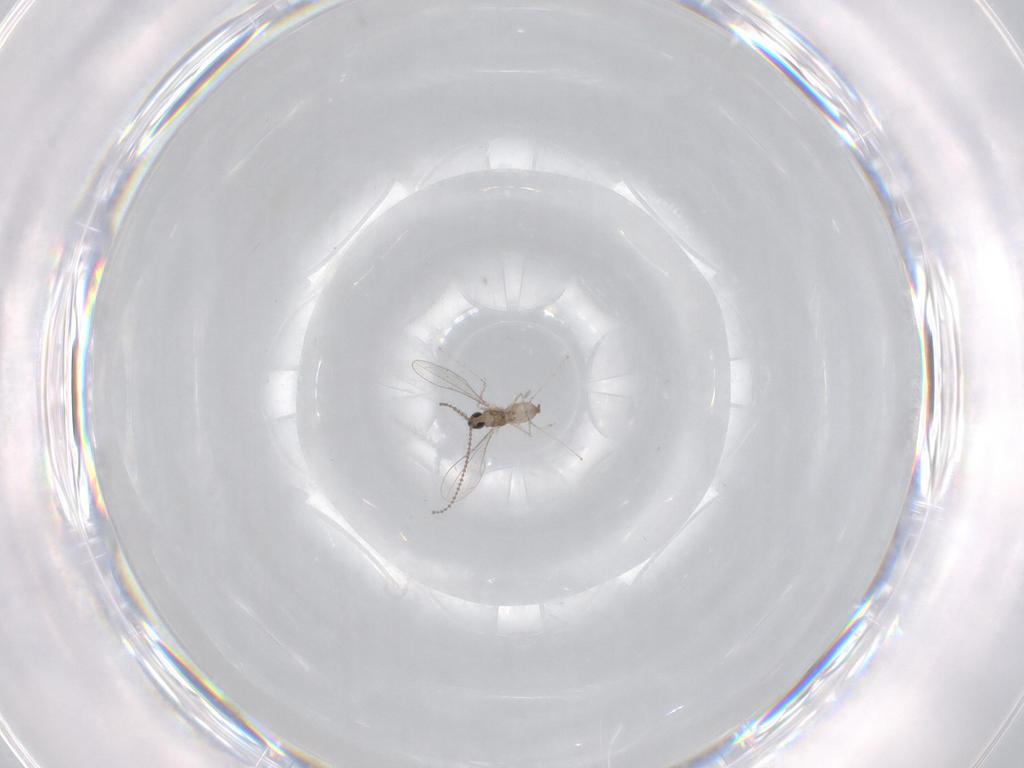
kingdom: Animalia
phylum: Arthropoda
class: Insecta
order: Diptera
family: Cecidomyiidae
